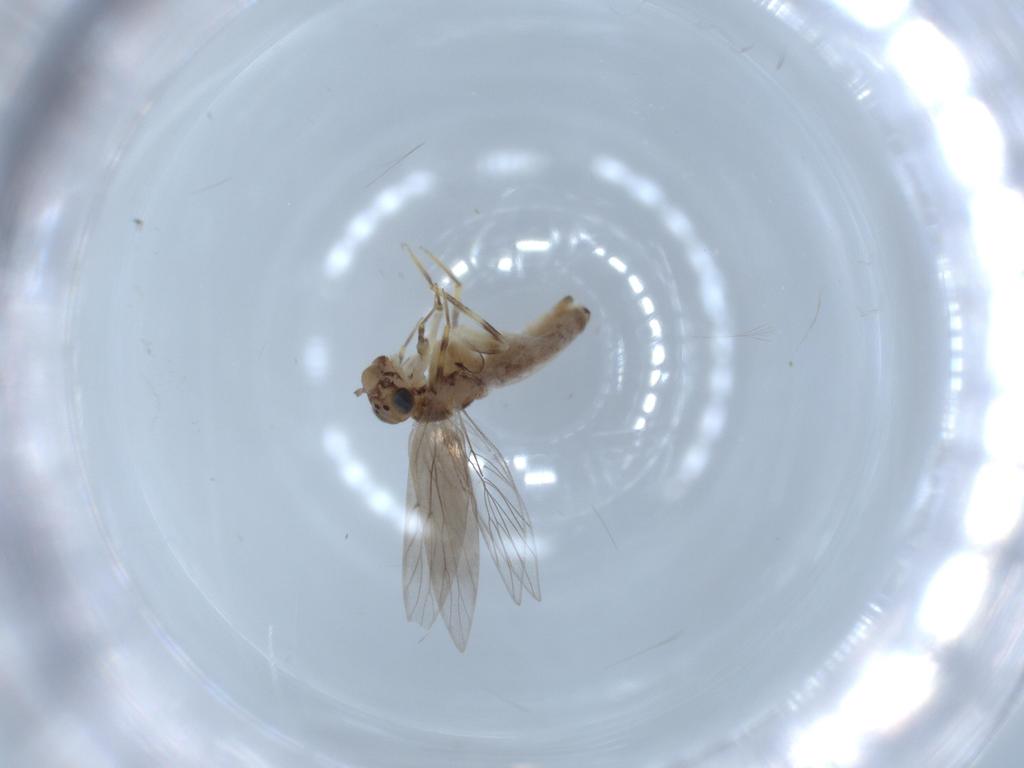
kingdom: Animalia
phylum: Arthropoda
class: Insecta
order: Psocodea
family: Lepidopsocidae
